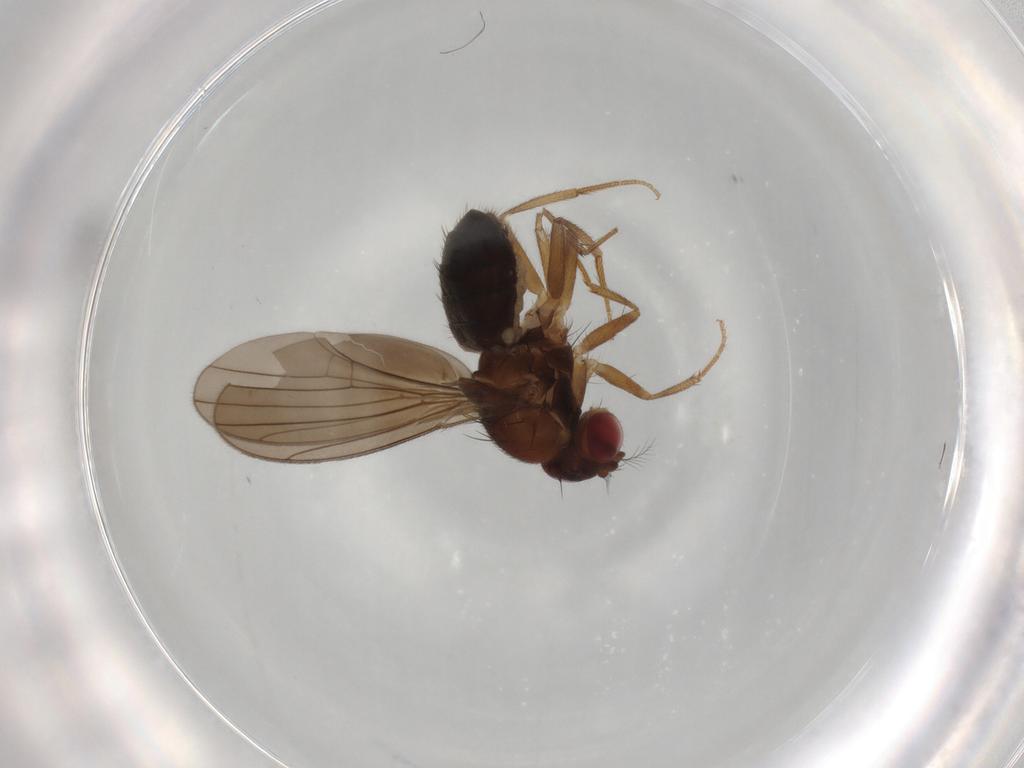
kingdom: Animalia
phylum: Arthropoda
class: Insecta
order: Diptera
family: Drosophilidae
